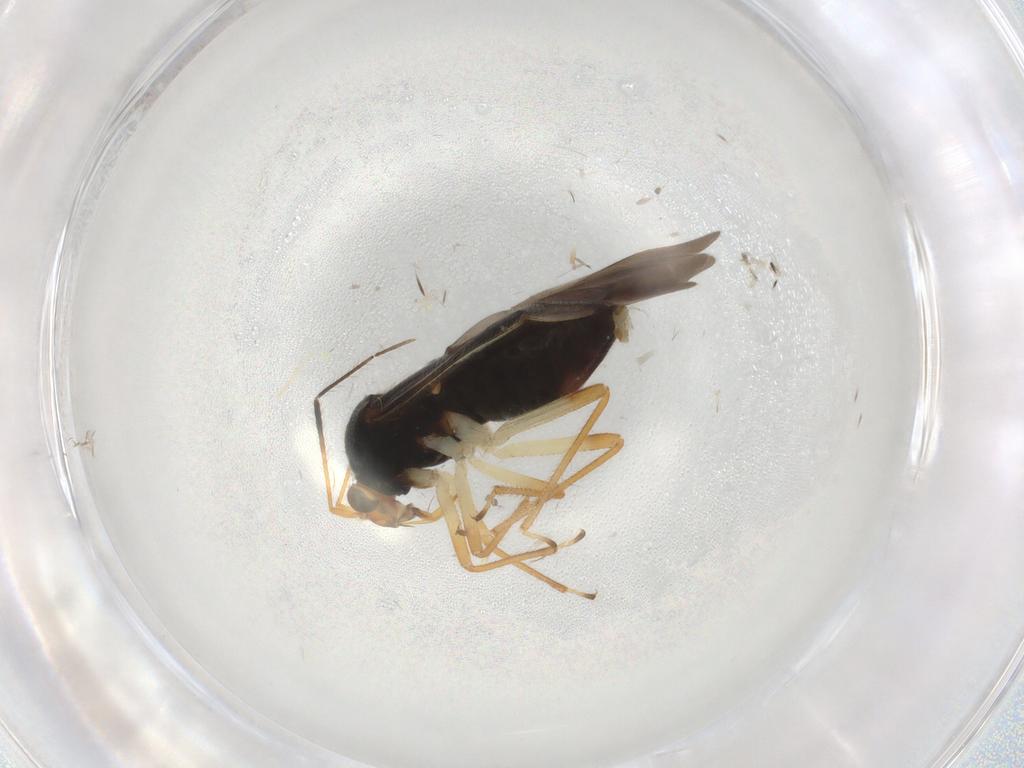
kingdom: Animalia
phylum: Arthropoda
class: Insecta
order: Hemiptera
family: Miridae
